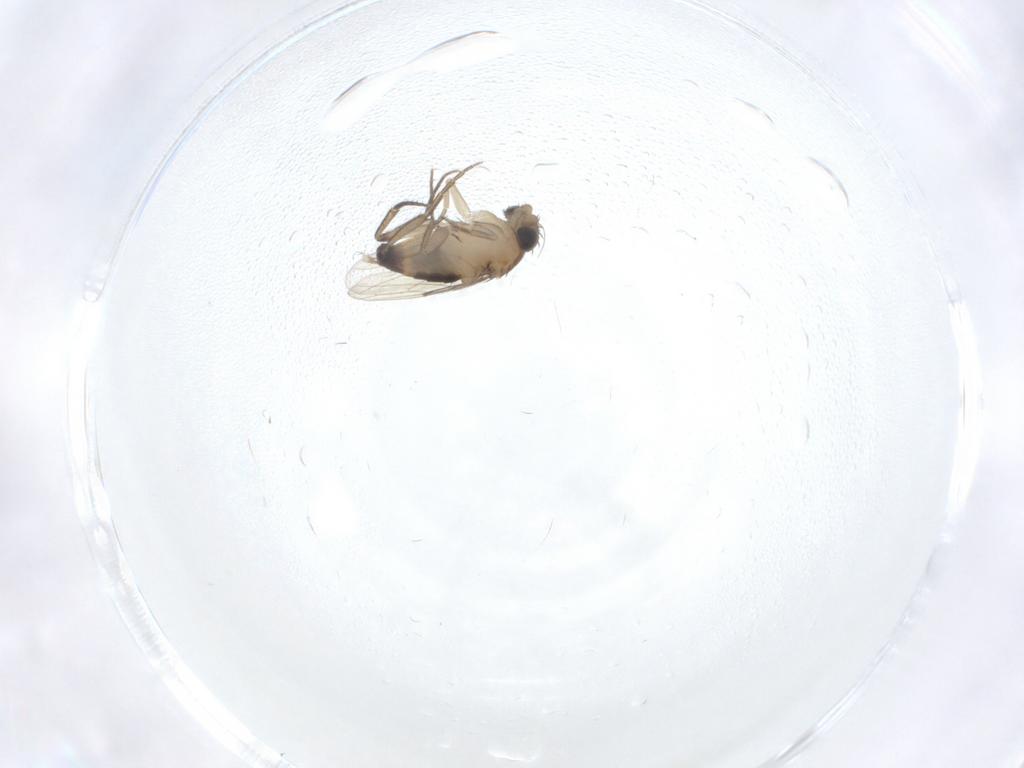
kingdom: Animalia
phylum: Arthropoda
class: Insecta
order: Diptera
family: Phoridae
